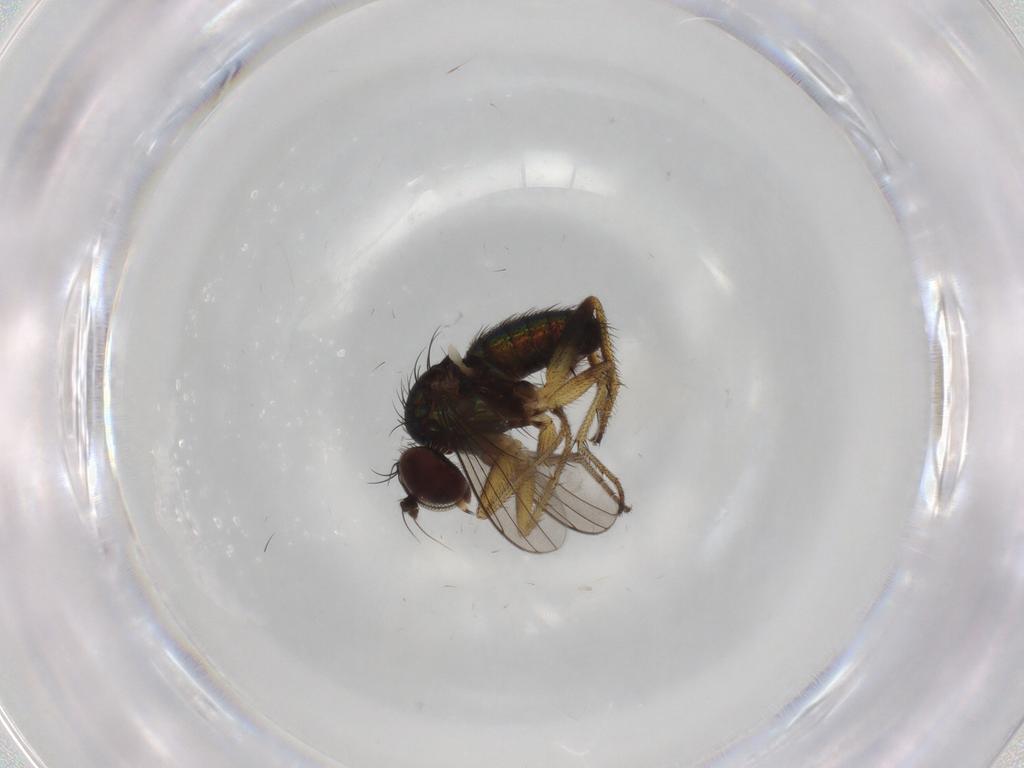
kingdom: Animalia
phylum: Arthropoda
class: Insecta
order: Diptera
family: Dolichopodidae
